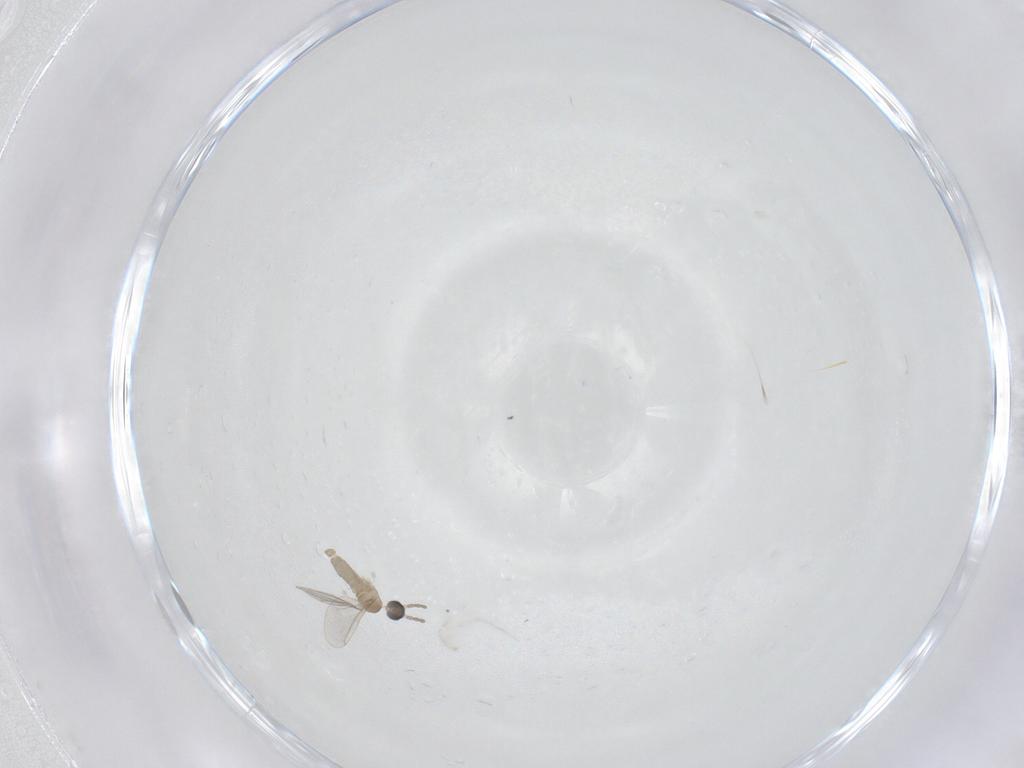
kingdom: Animalia
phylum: Arthropoda
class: Insecta
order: Diptera
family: Cecidomyiidae
